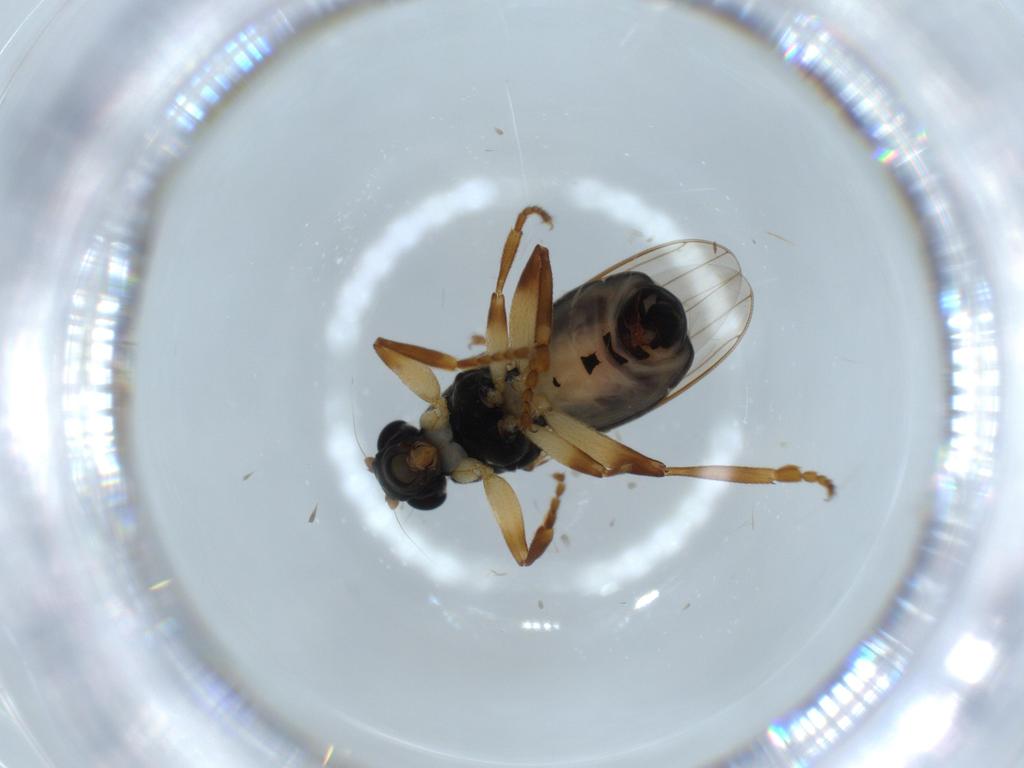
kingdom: Animalia
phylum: Arthropoda
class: Insecta
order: Diptera
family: Sphaeroceridae
